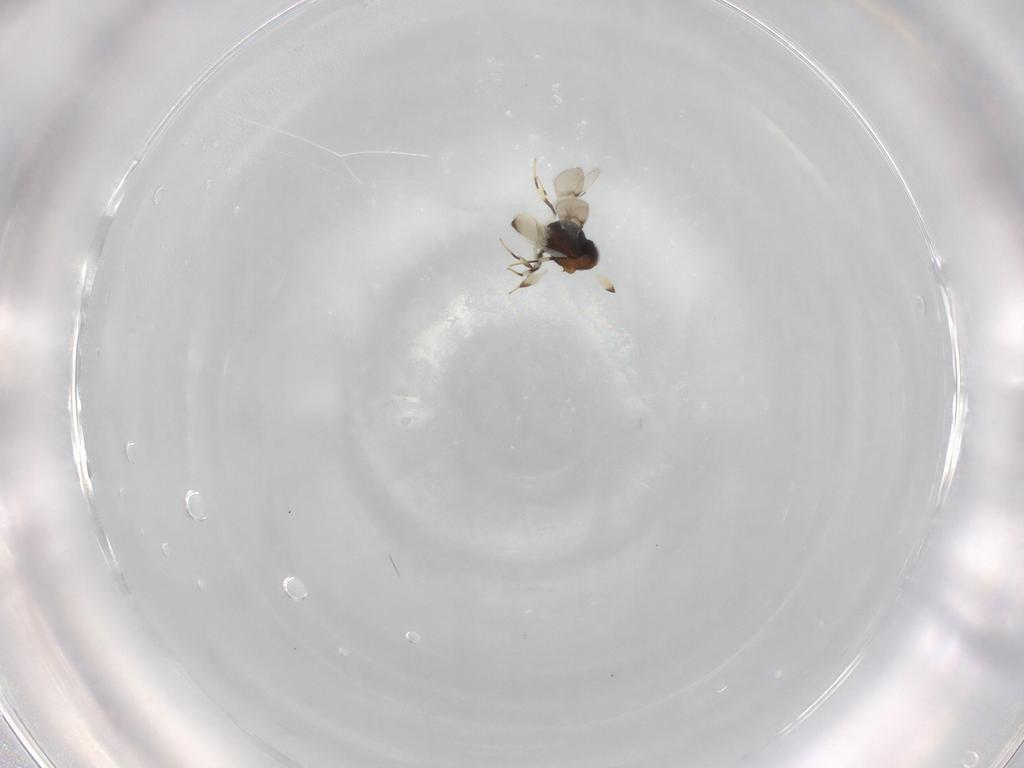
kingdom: Animalia
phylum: Arthropoda
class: Insecta
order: Hymenoptera
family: Scelionidae
